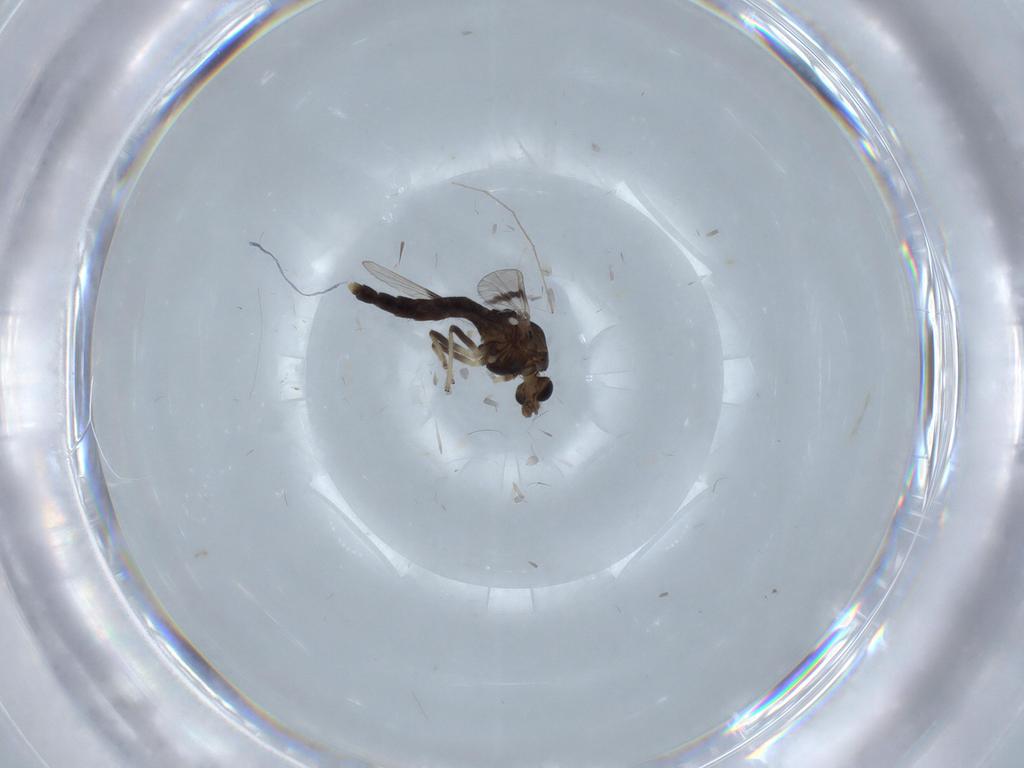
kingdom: Animalia
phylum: Arthropoda
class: Insecta
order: Diptera
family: Chironomidae
